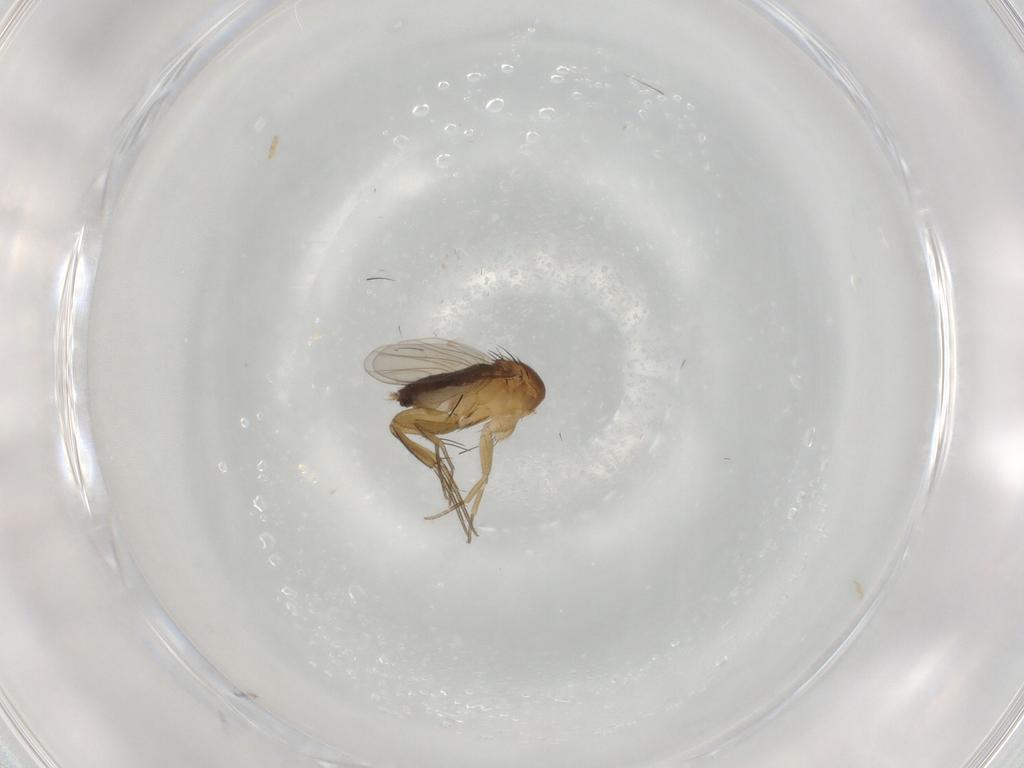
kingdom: Animalia
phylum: Arthropoda
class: Insecta
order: Diptera
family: Phoridae
